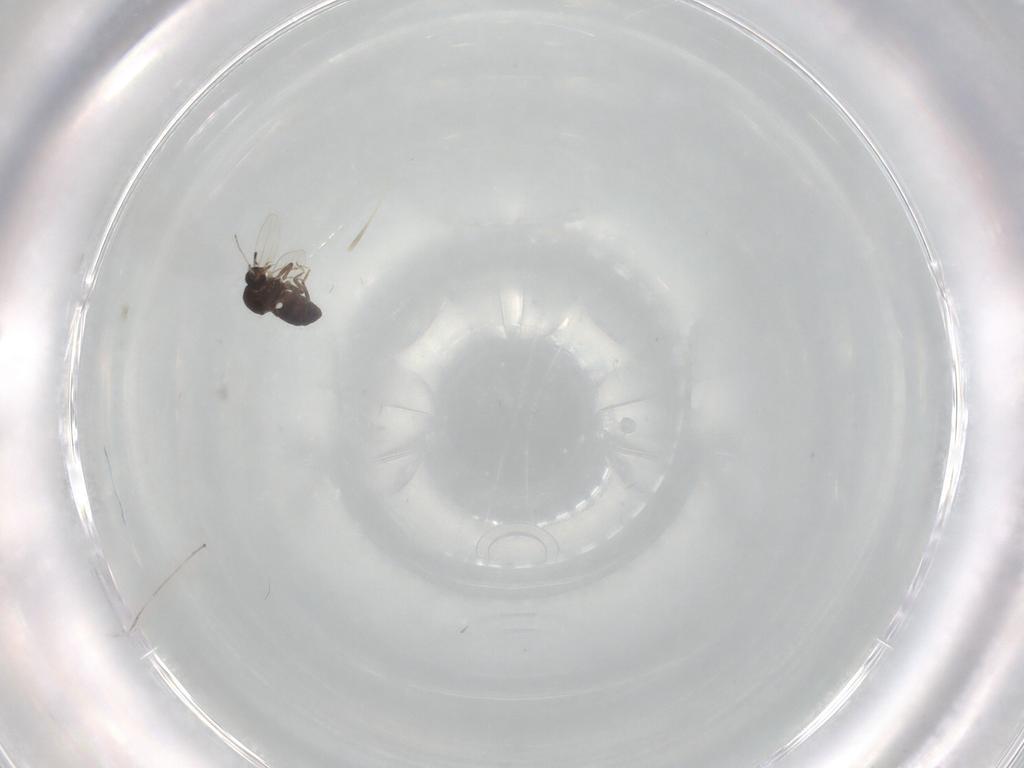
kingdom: Animalia
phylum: Arthropoda
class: Insecta
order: Diptera
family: Ceratopogonidae
